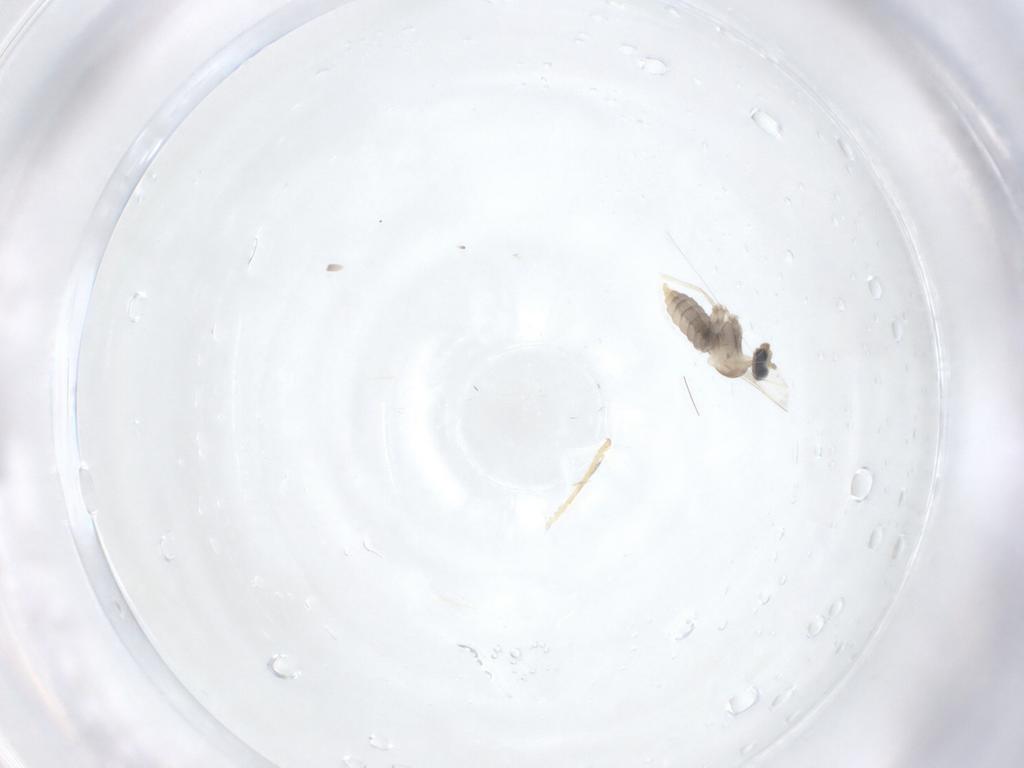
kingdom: Animalia
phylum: Arthropoda
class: Insecta
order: Diptera
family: Cecidomyiidae
